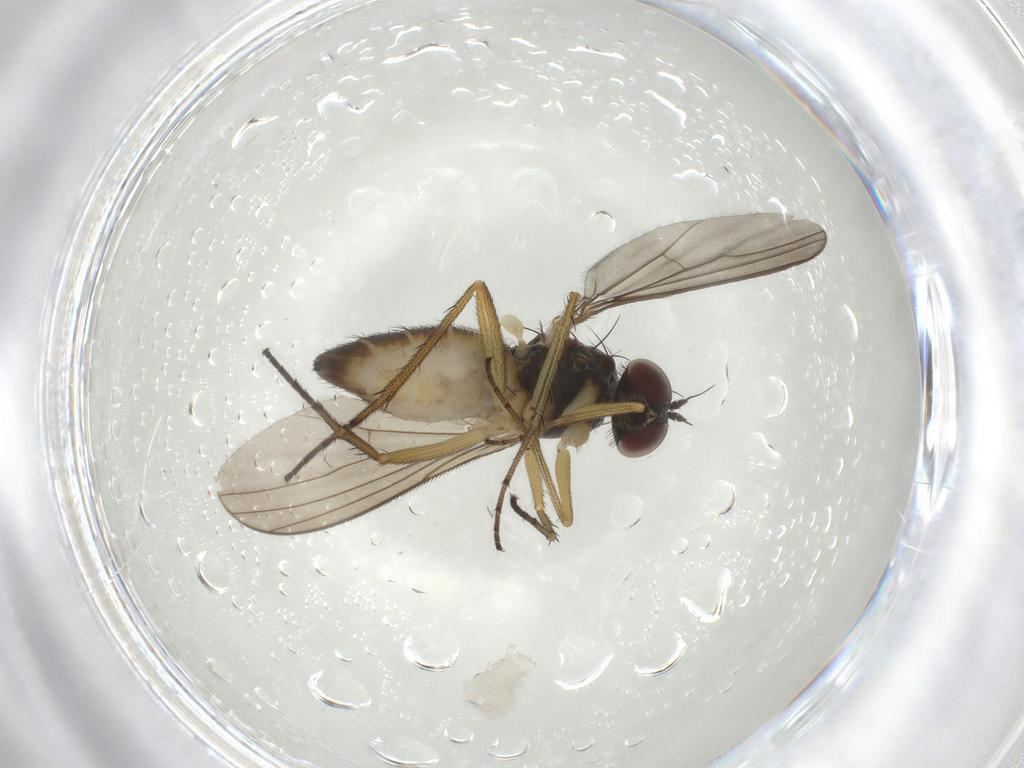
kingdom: Animalia
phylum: Arthropoda
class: Insecta
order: Diptera
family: Dolichopodidae
